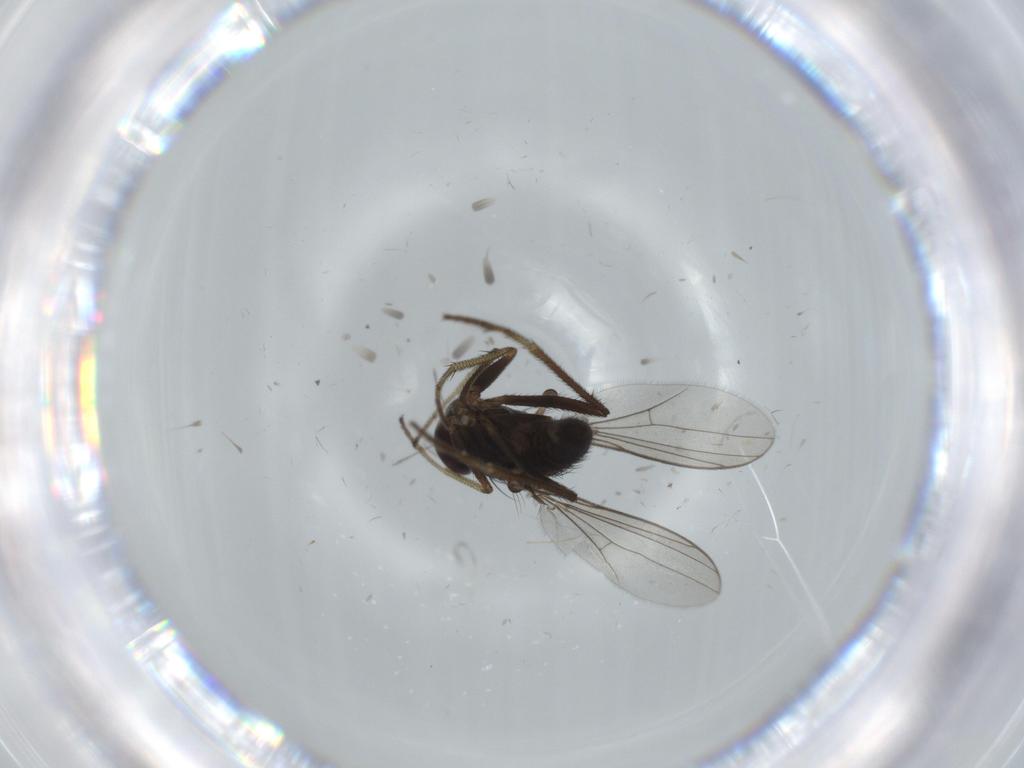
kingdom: Animalia
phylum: Arthropoda
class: Insecta
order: Diptera
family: Dolichopodidae
